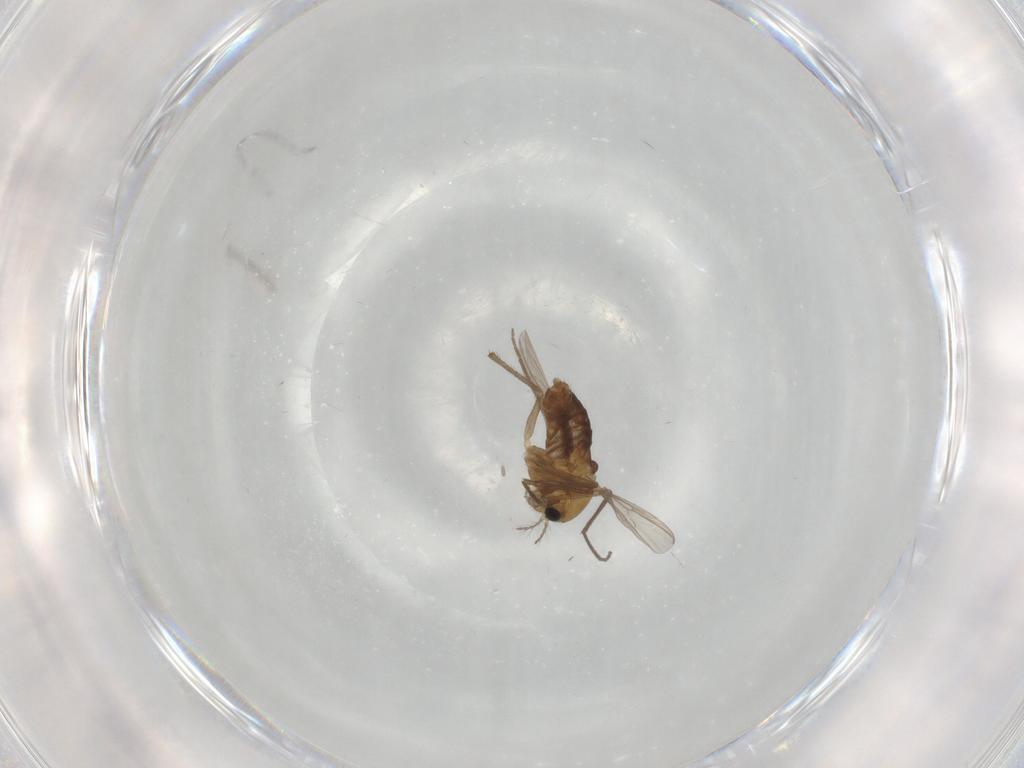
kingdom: Animalia
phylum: Arthropoda
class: Insecta
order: Diptera
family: Chironomidae
